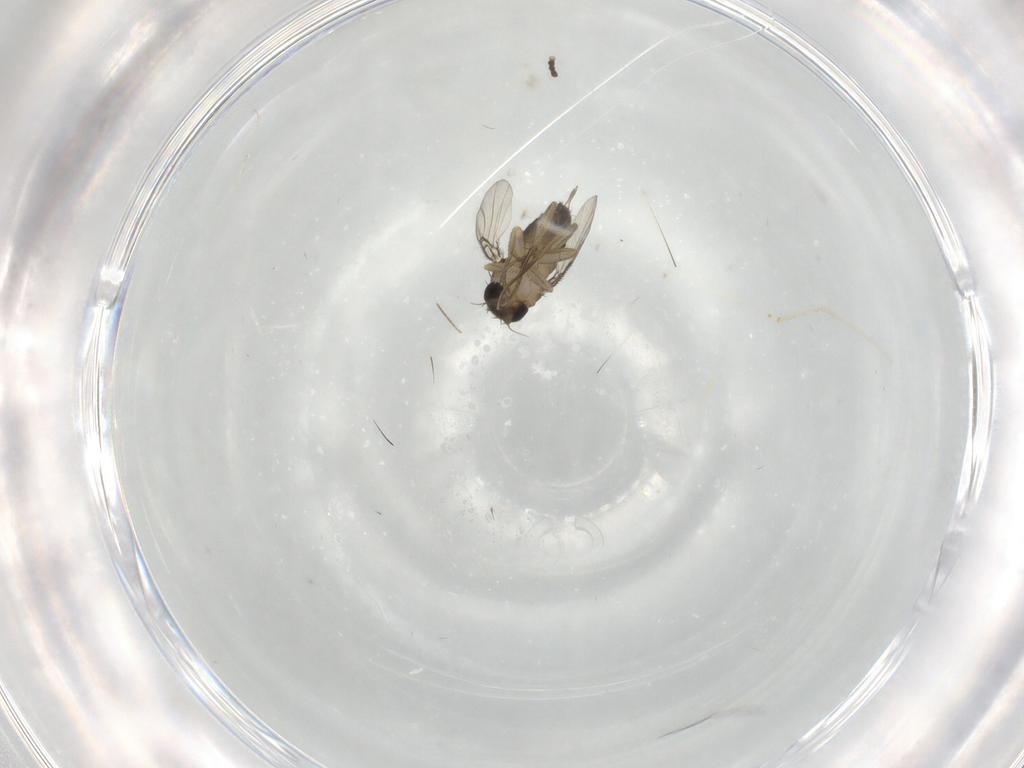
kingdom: Animalia
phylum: Arthropoda
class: Insecta
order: Diptera
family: Cecidomyiidae
